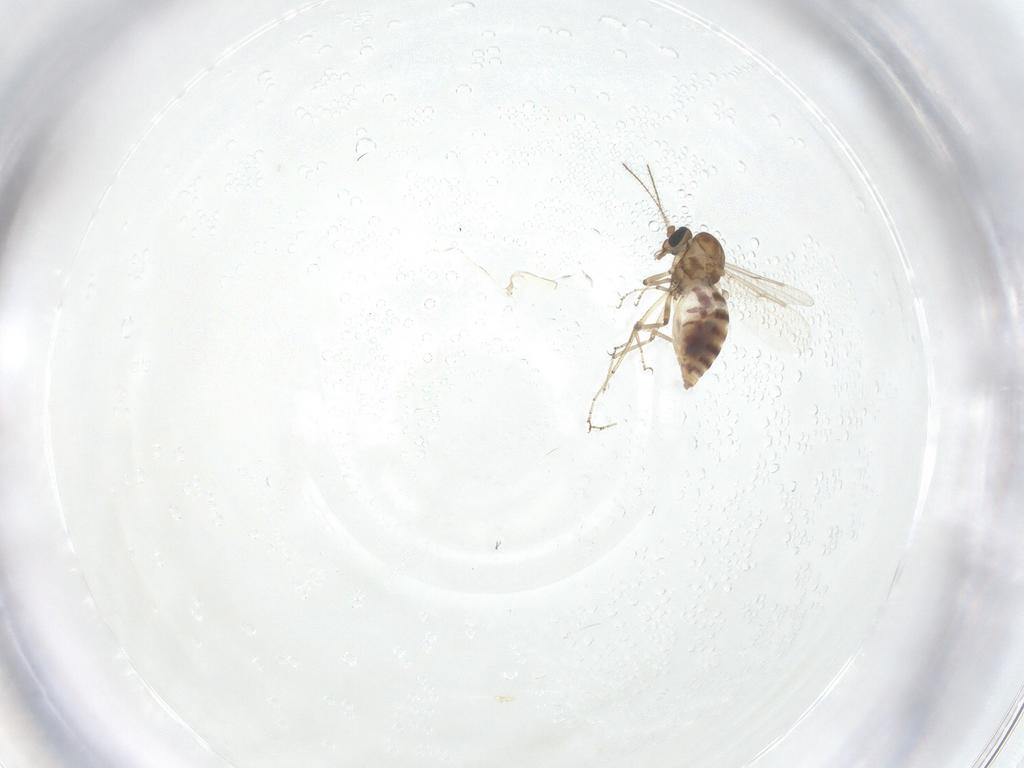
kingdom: Animalia
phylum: Arthropoda
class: Insecta
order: Diptera
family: Ceratopogonidae
